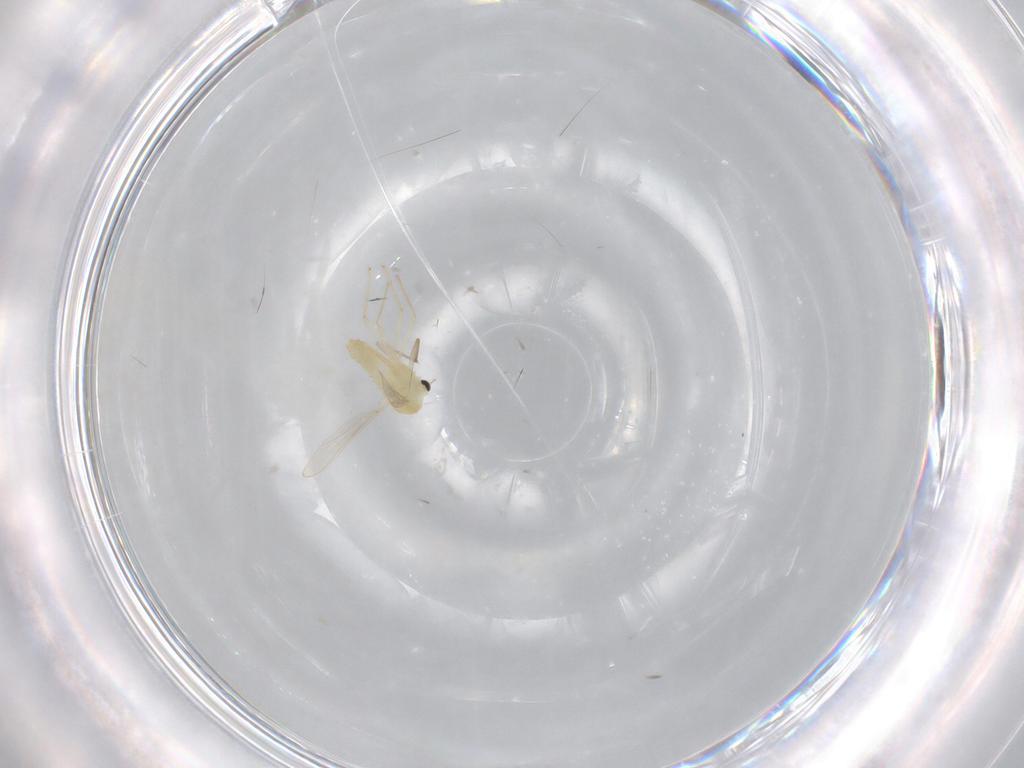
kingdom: Animalia
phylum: Arthropoda
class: Insecta
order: Diptera
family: Chironomidae
